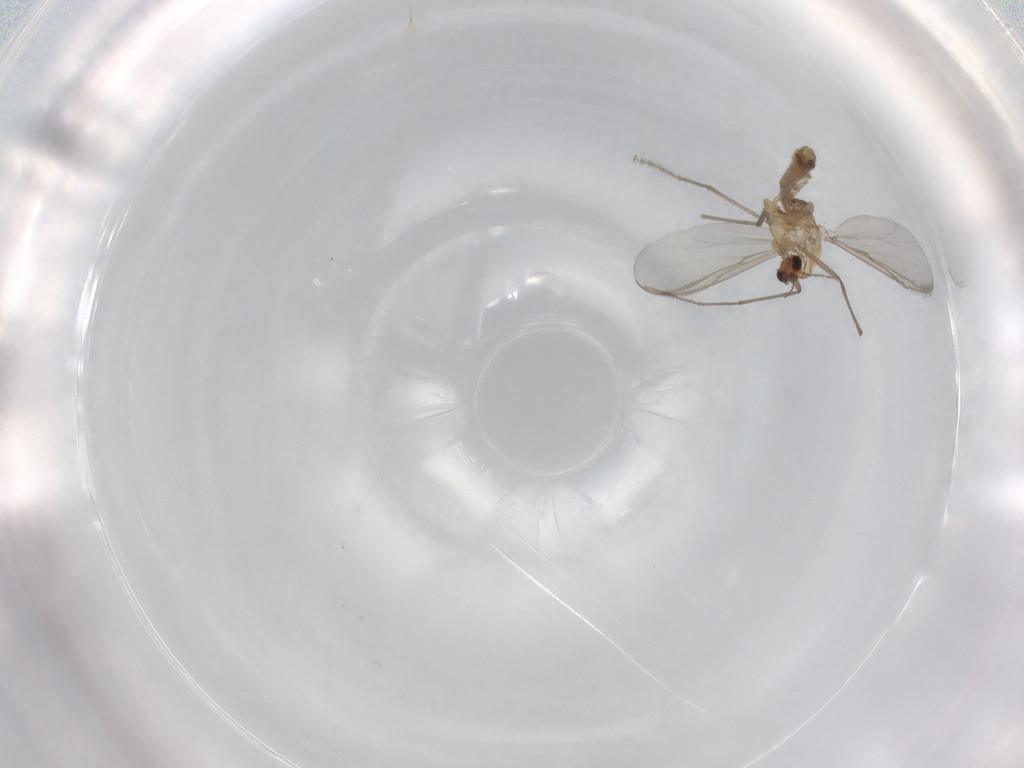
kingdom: Animalia
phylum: Arthropoda
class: Insecta
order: Diptera
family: Chironomidae
